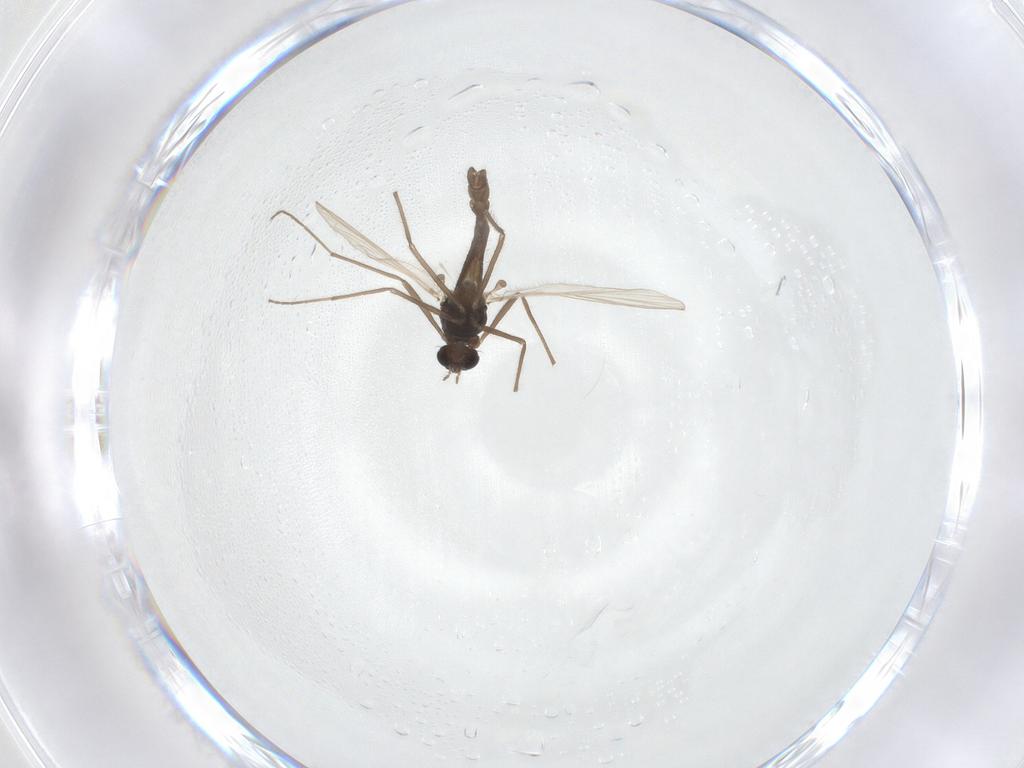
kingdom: Animalia
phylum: Arthropoda
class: Insecta
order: Diptera
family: Chironomidae
